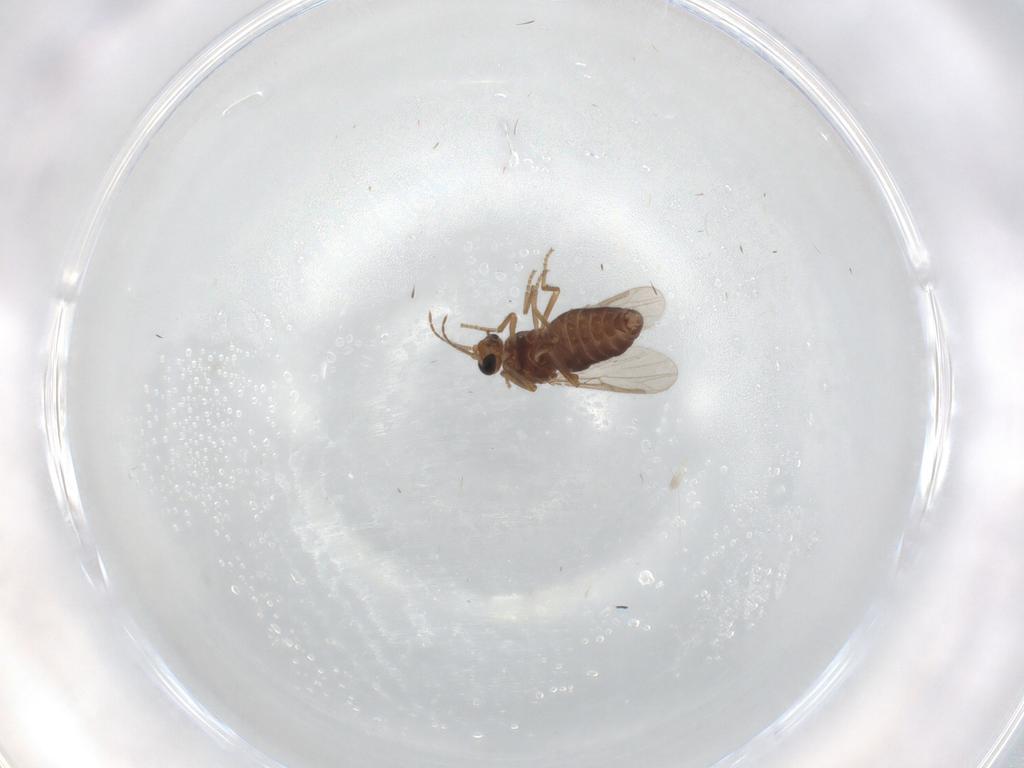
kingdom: Animalia
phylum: Arthropoda
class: Insecta
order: Diptera
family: Ceratopogonidae
